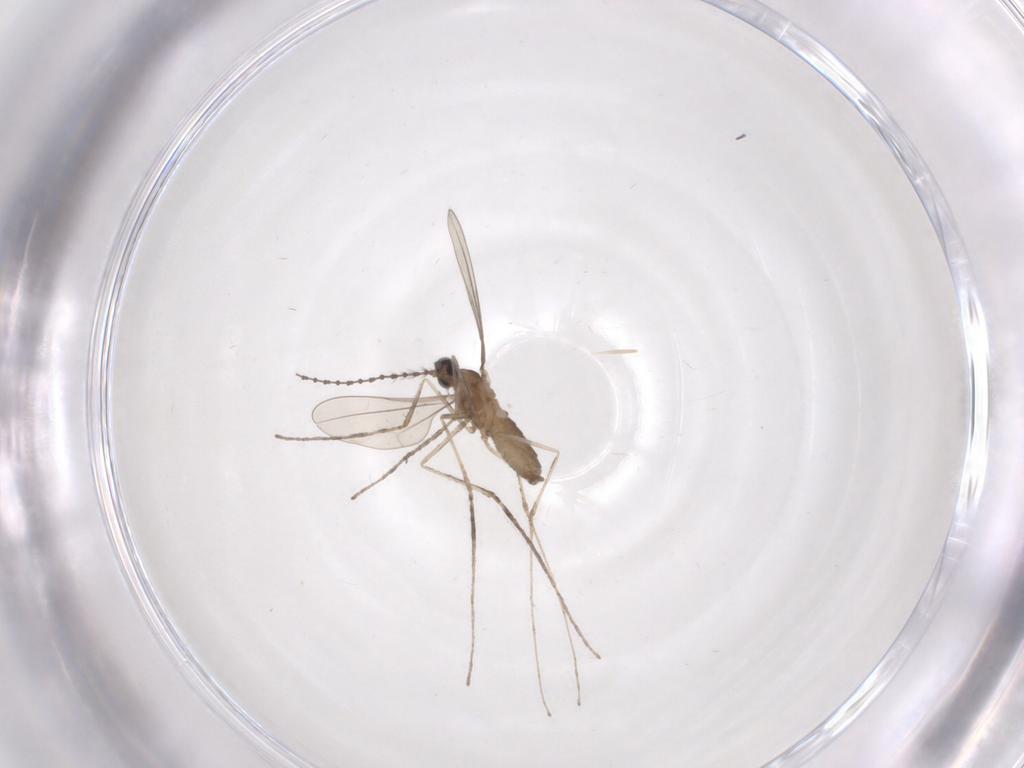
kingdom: Animalia
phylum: Arthropoda
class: Insecta
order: Diptera
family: Cecidomyiidae
